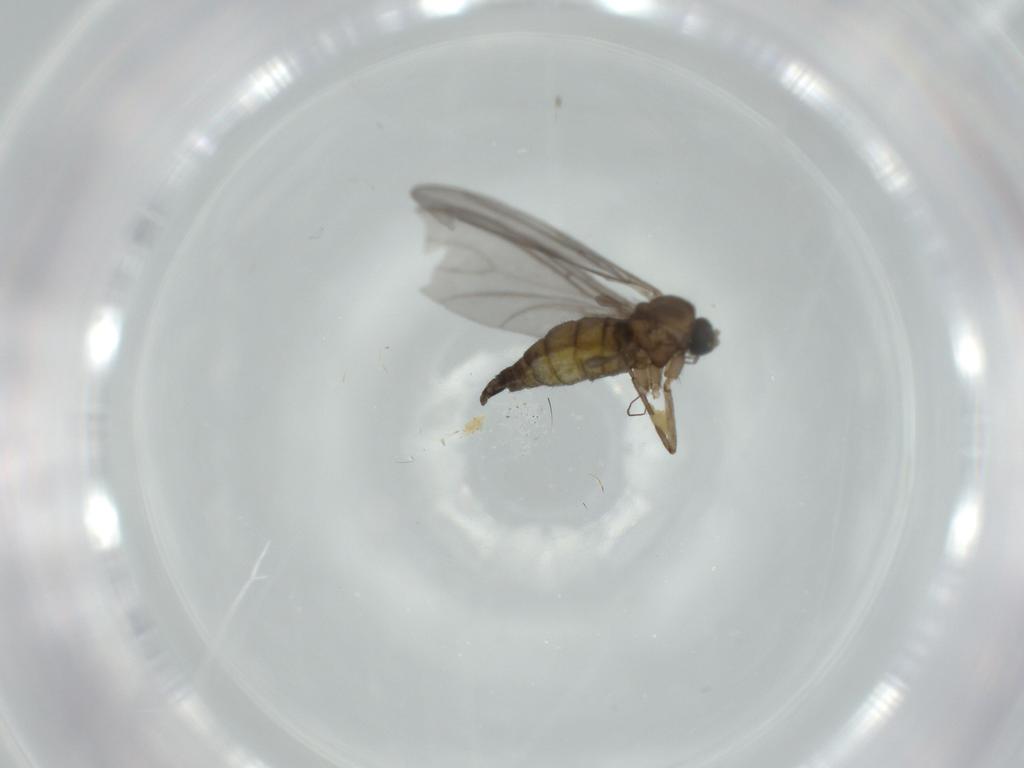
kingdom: Animalia
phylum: Arthropoda
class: Insecta
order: Diptera
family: Sciaridae
